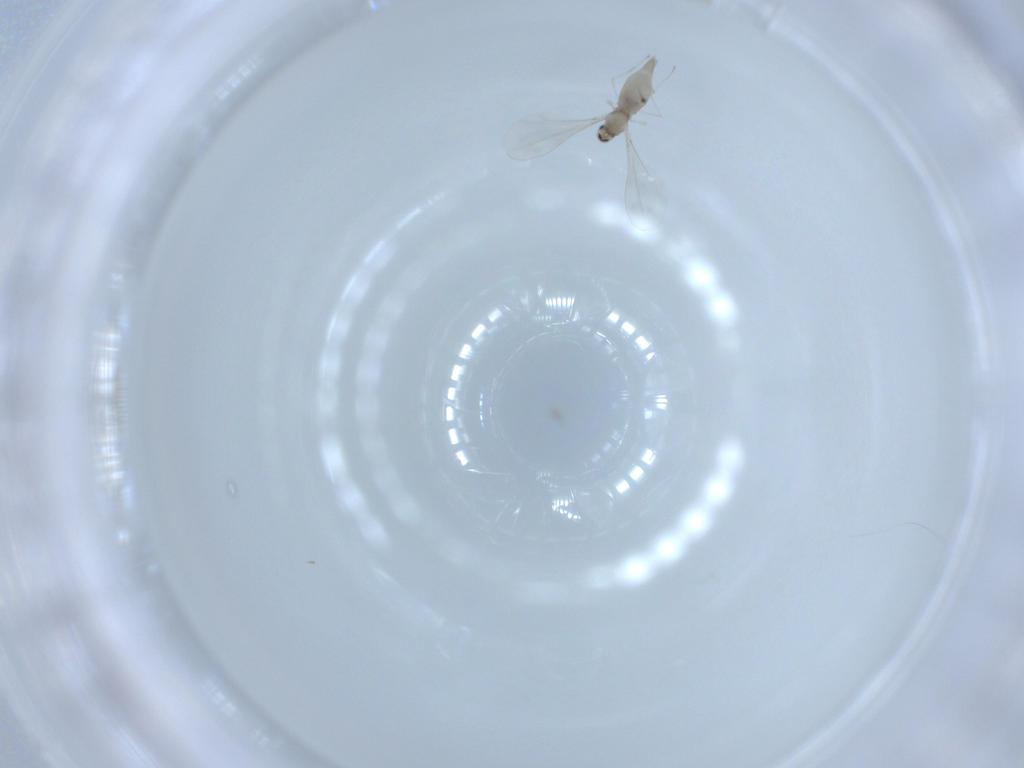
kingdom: Animalia
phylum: Arthropoda
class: Insecta
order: Diptera
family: Cecidomyiidae
